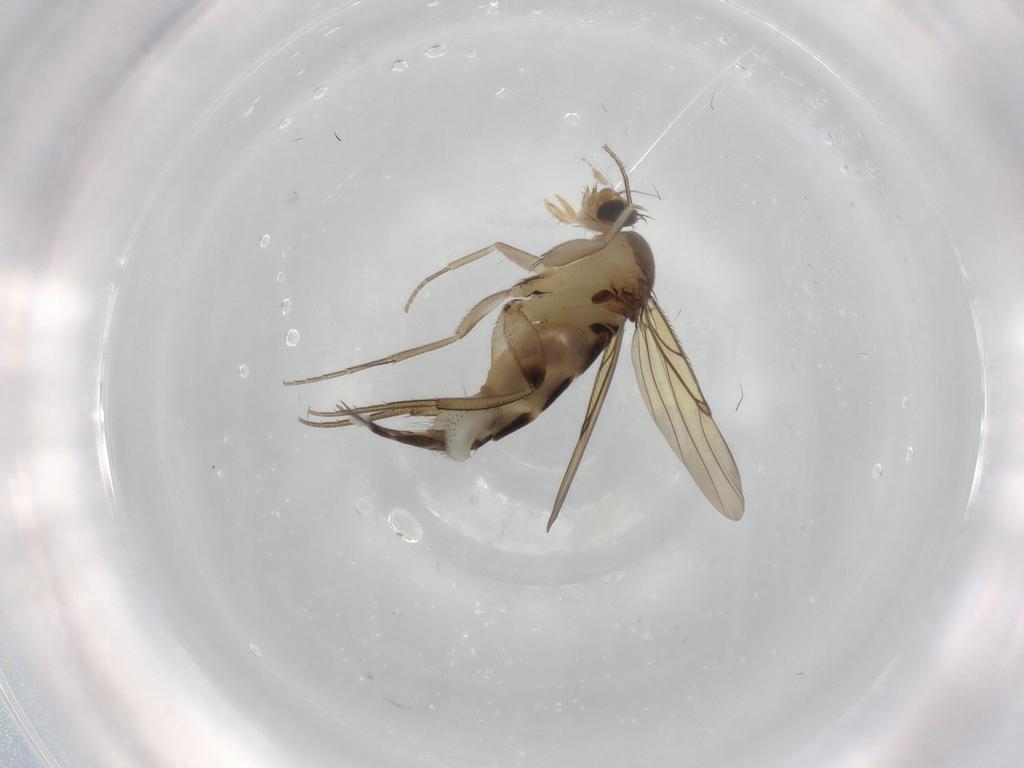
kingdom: Animalia
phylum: Arthropoda
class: Insecta
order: Diptera
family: Phoridae
